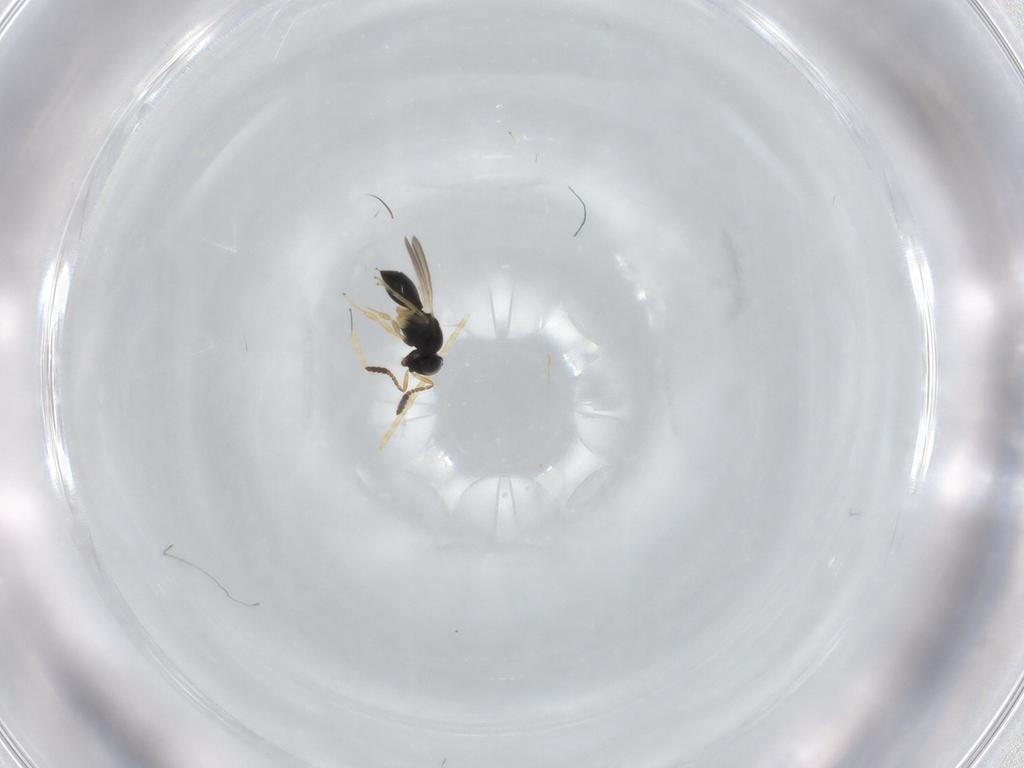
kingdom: Animalia
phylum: Arthropoda
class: Insecta
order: Hymenoptera
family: Scelionidae
